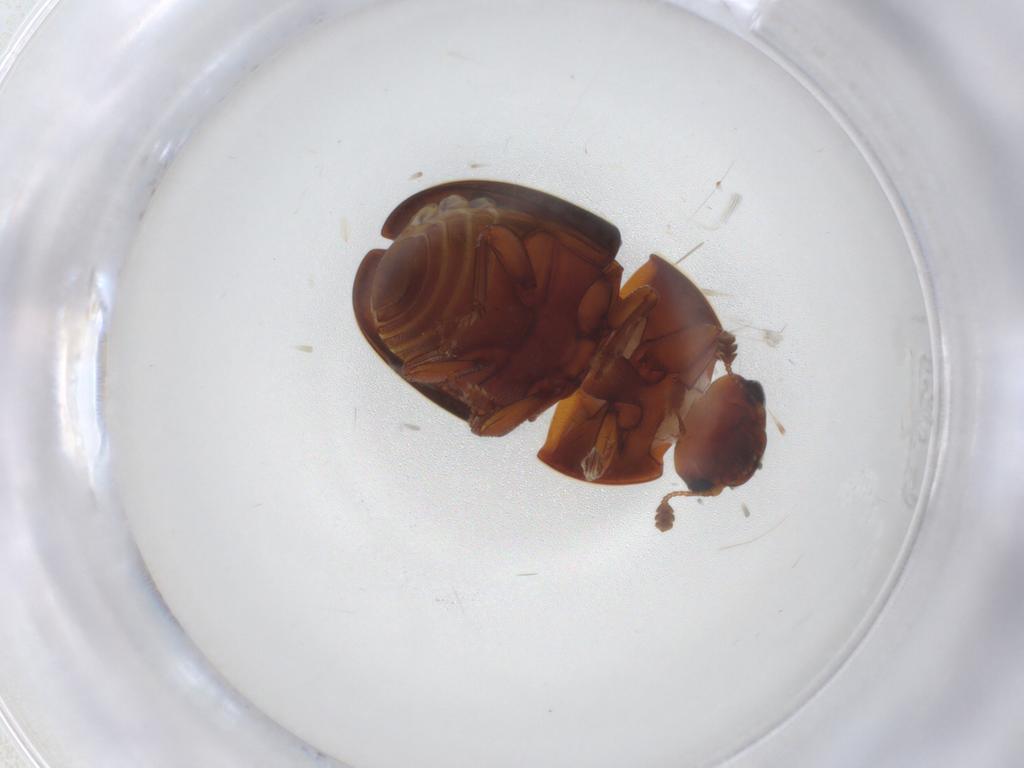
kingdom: Animalia
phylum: Arthropoda
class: Insecta
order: Coleoptera
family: Nitidulidae
